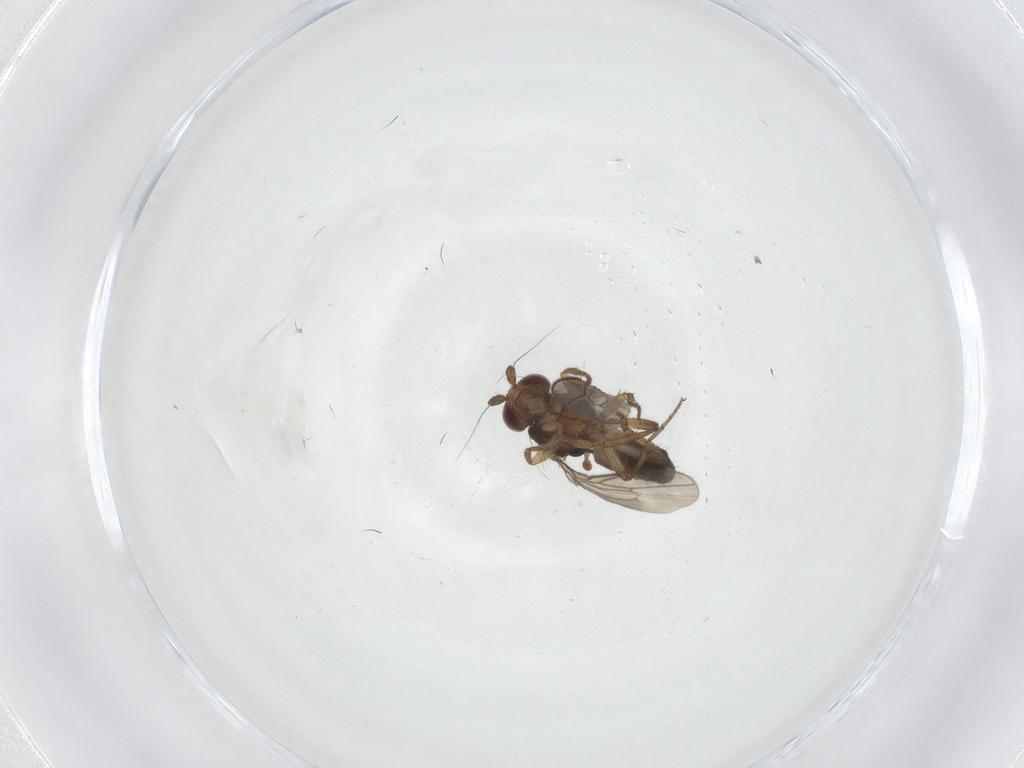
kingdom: Animalia
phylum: Arthropoda
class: Insecta
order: Diptera
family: Sphaeroceridae
